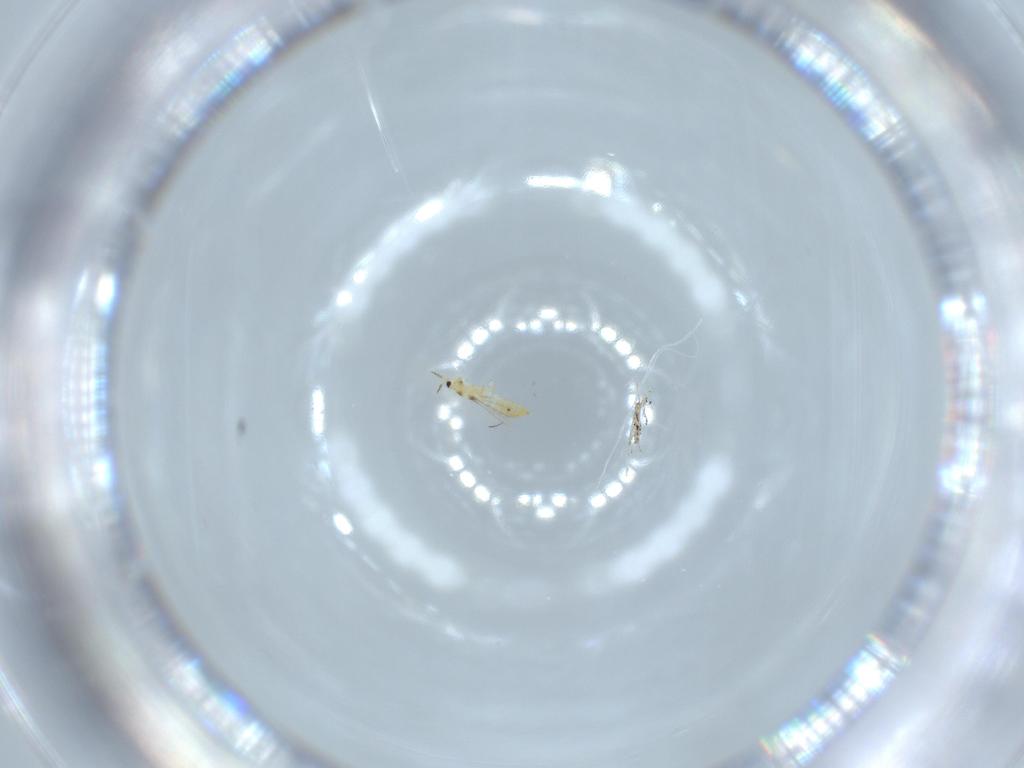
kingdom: Animalia
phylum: Arthropoda
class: Insecta
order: Thysanoptera
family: Phlaeothripidae
